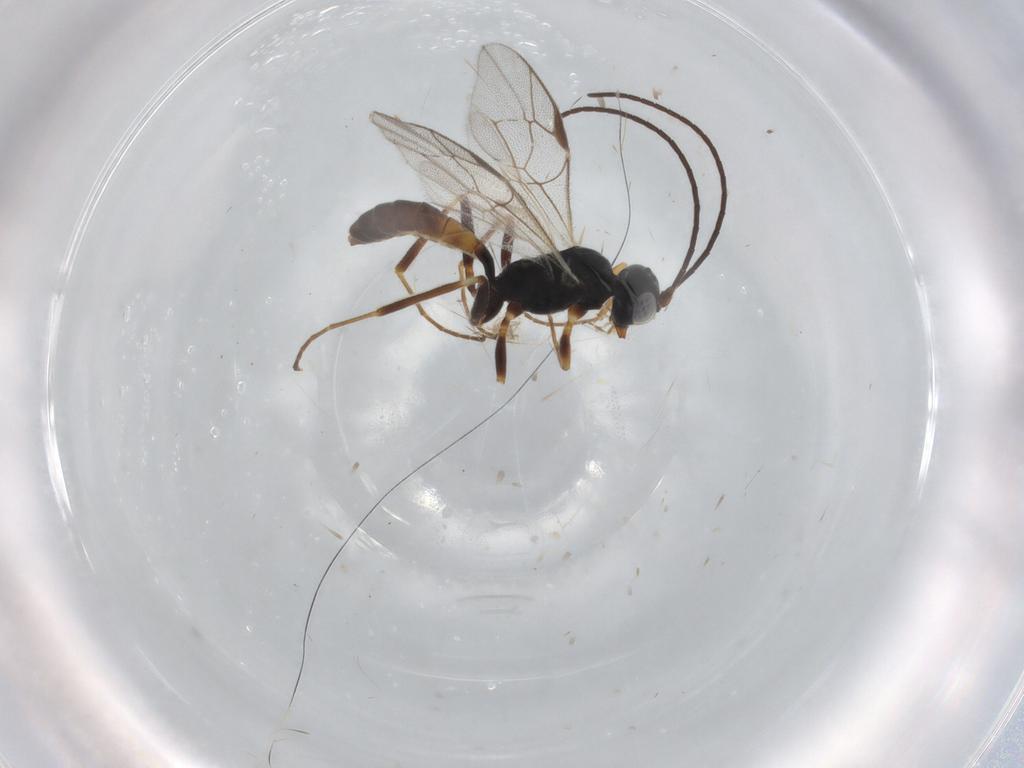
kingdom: Animalia
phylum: Arthropoda
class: Insecta
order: Hymenoptera
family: Ichneumonidae
